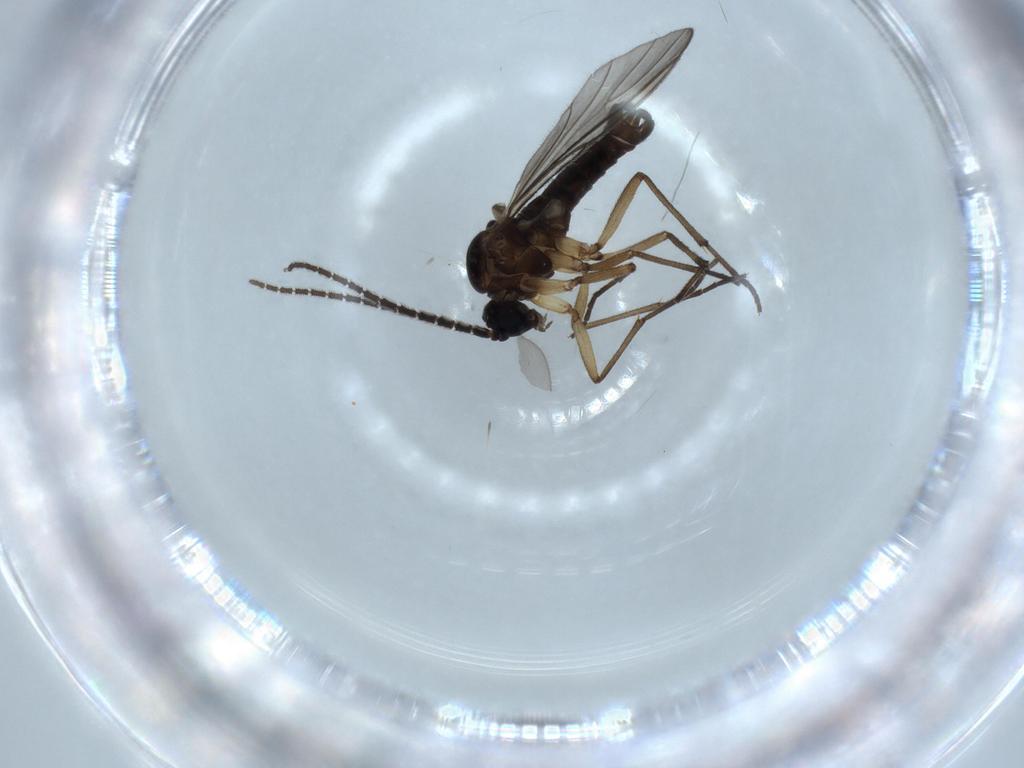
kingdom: Animalia
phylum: Arthropoda
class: Insecta
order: Diptera
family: Sciaridae
